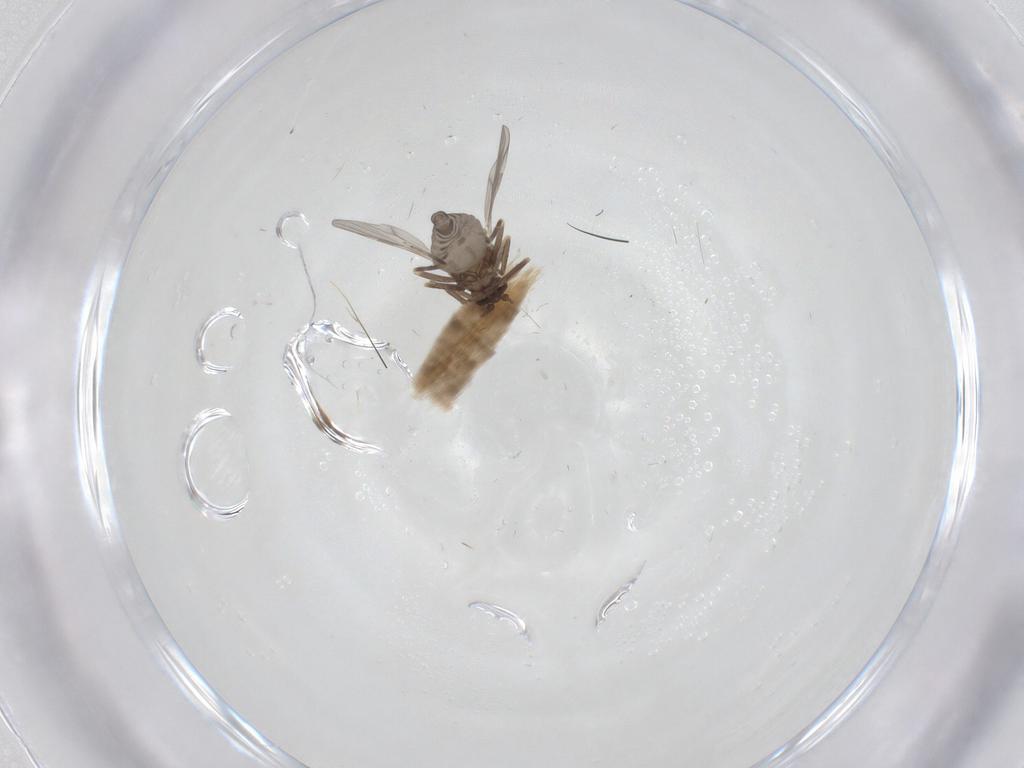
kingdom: Animalia
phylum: Arthropoda
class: Insecta
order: Diptera
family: Ceratopogonidae
